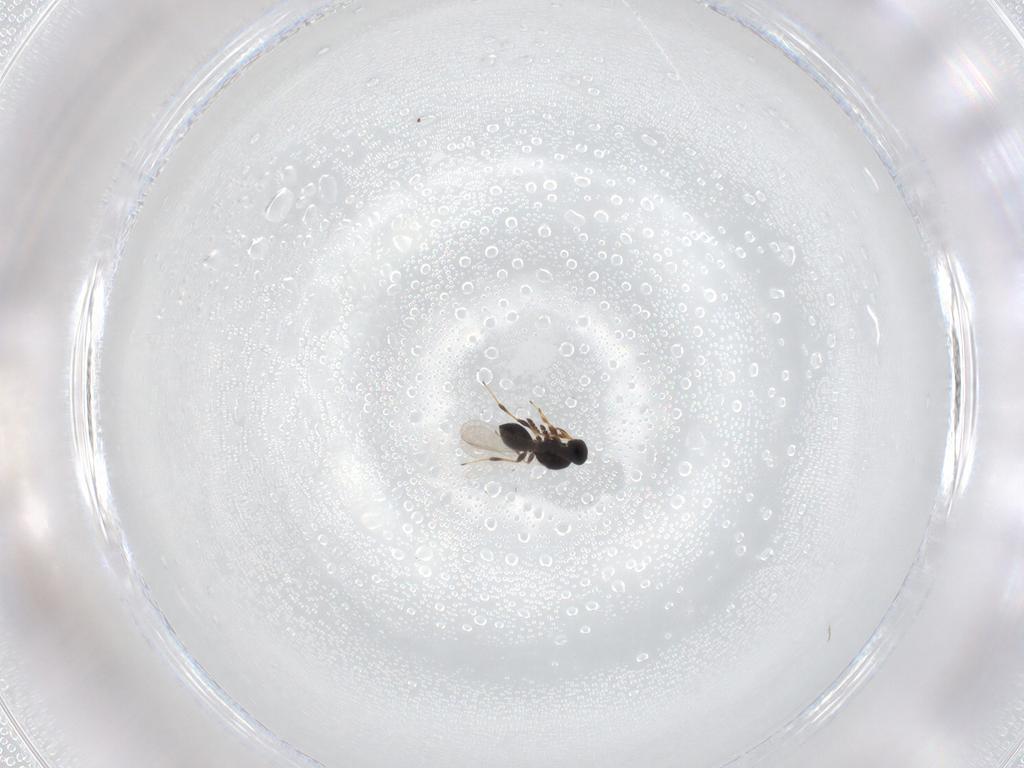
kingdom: Animalia
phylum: Arthropoda
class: Insecta
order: Hymenoptera
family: Platygastridae
